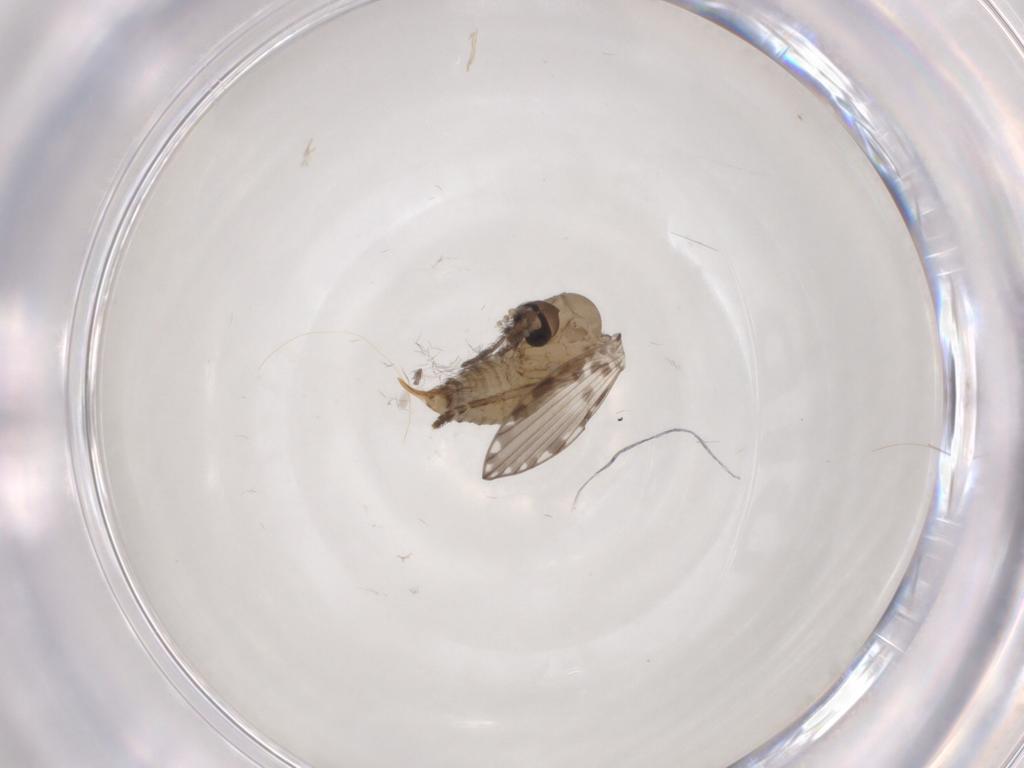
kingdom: Animalia
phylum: Arthropoda
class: Insecta
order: Diptera
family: Psychodidae
